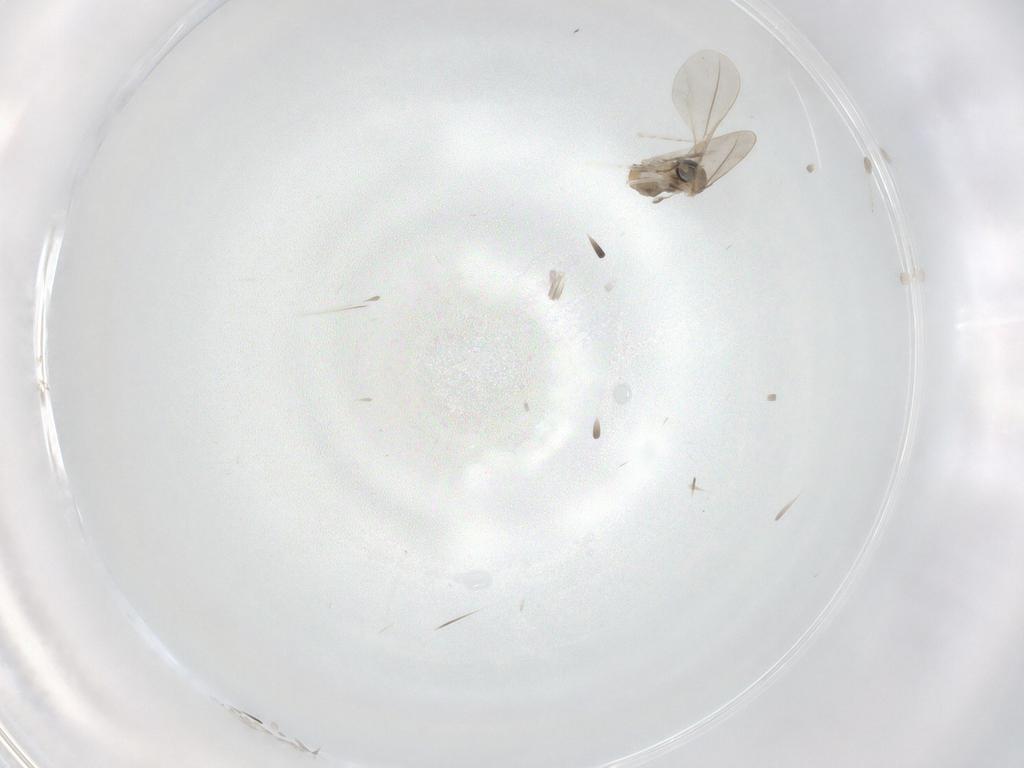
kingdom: Animalia
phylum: Arthropoda
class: Insecta
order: Diptera
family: Cecidomyiidae
